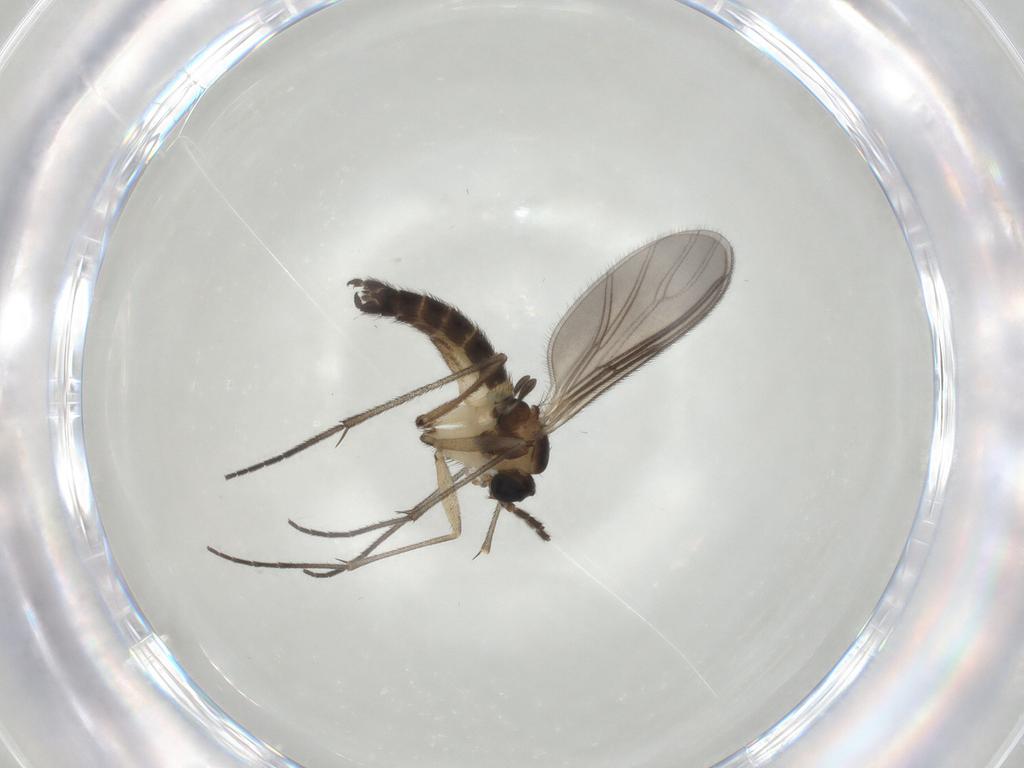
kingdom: Animalia
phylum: Arthropoda
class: Insecta
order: Diptera
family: Sciaridae
